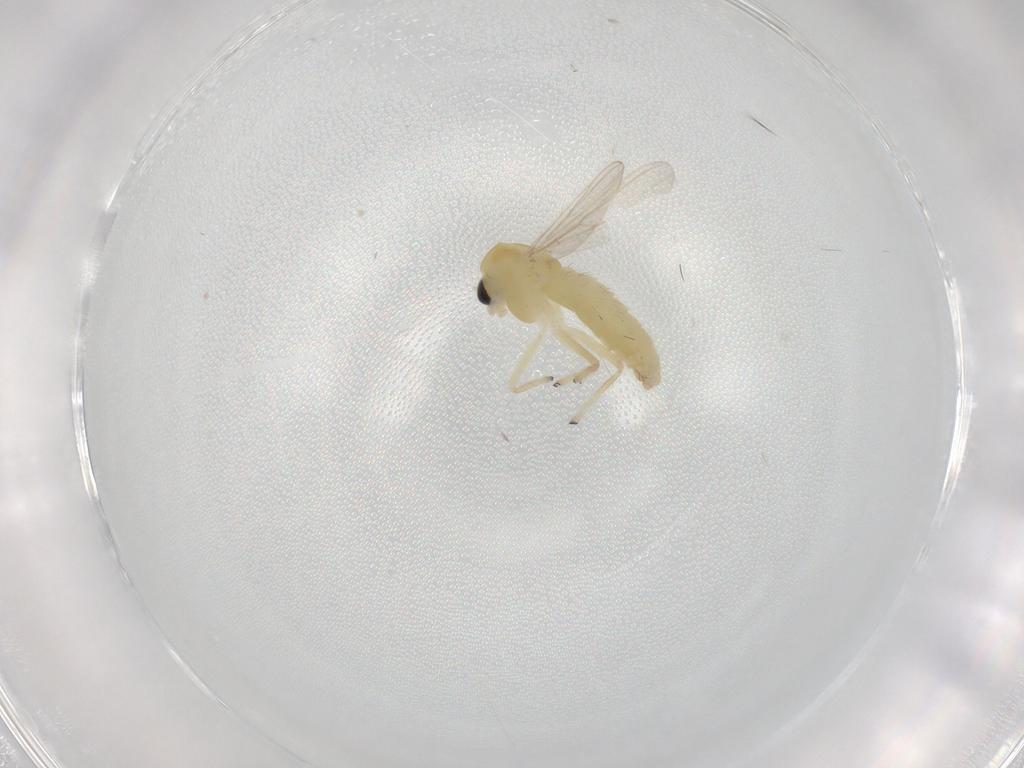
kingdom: Animalia
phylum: Arthropoda
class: Insecta
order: Diptera
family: Chironomidae
